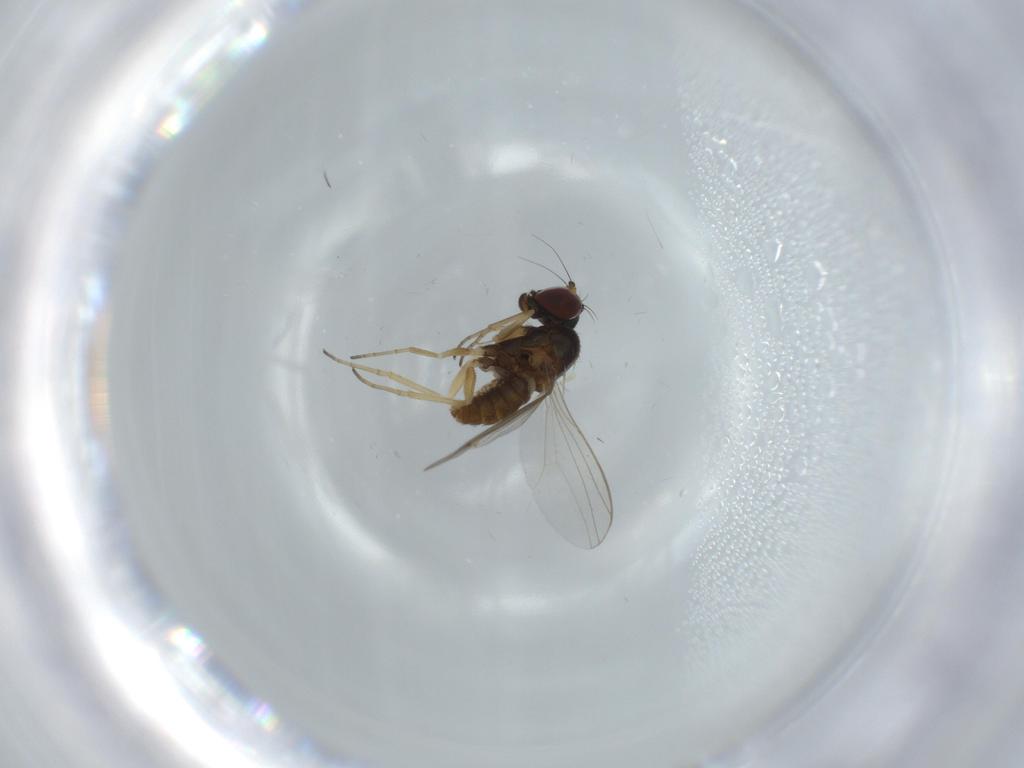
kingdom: Animalia
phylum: Arthropoda
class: Insecta
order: Diptera
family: Dolichopodidae
